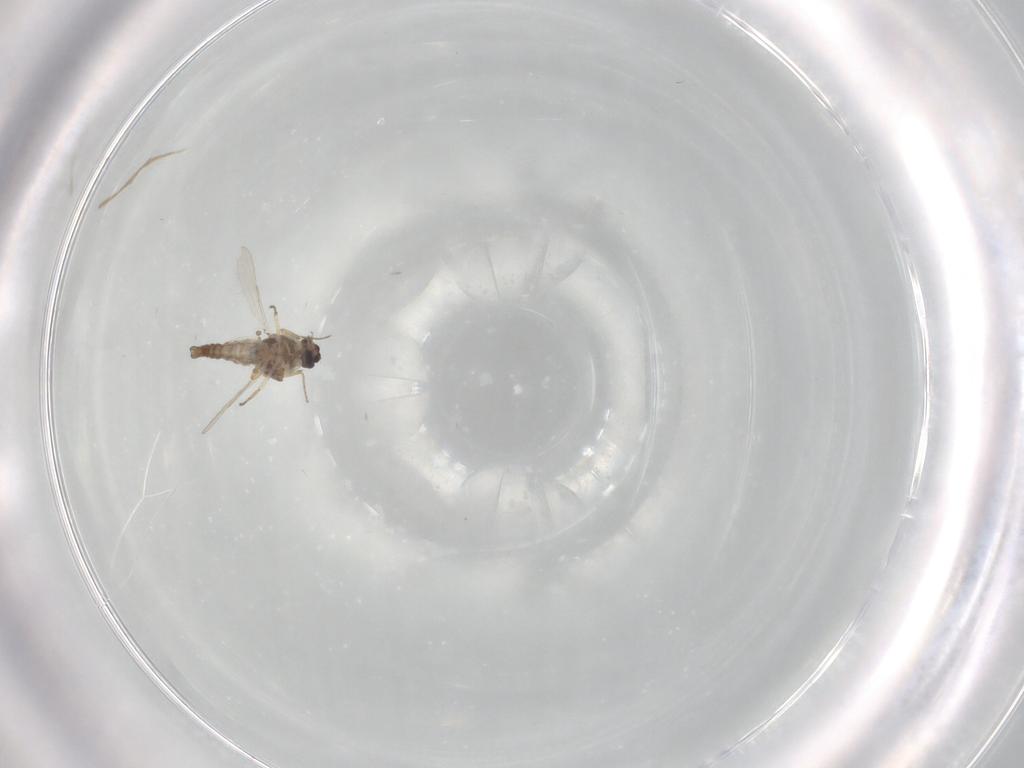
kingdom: Animalia
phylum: Arthropoda
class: Insecta
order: Diptera
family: Ceratopogonidae
